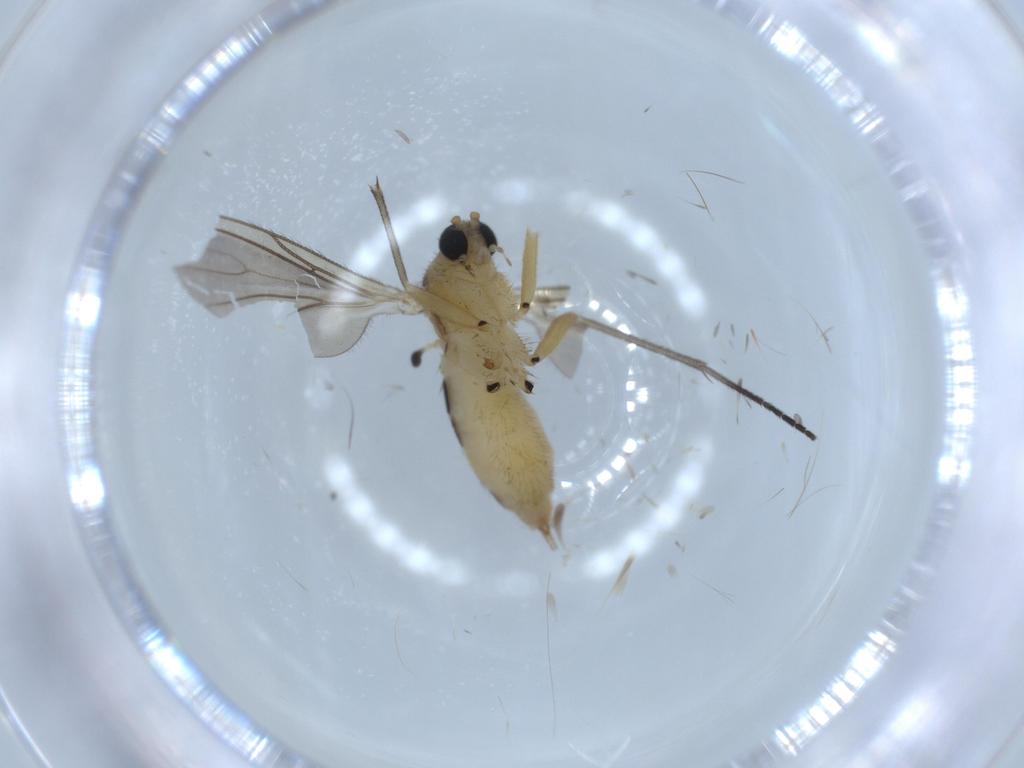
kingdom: Animalia
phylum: Arthropoda
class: Insecta
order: Diptera
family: Sciaridae
